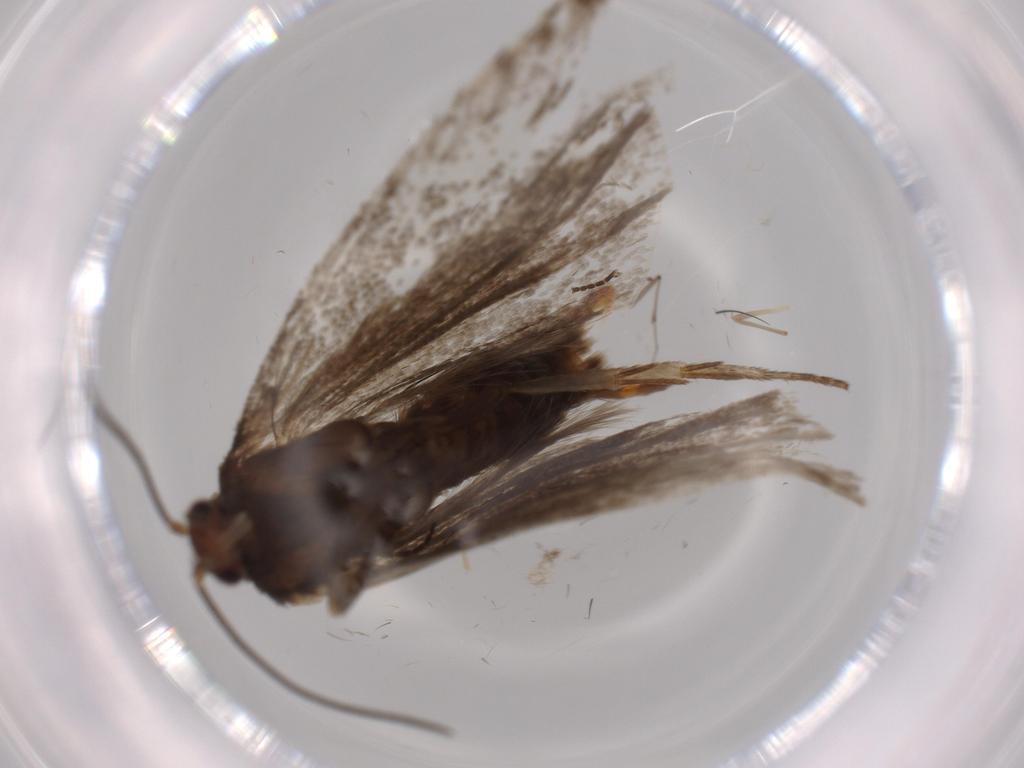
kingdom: Animalia
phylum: Arthropoda
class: Insecta
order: Lepidoptera
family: Tortricidae
